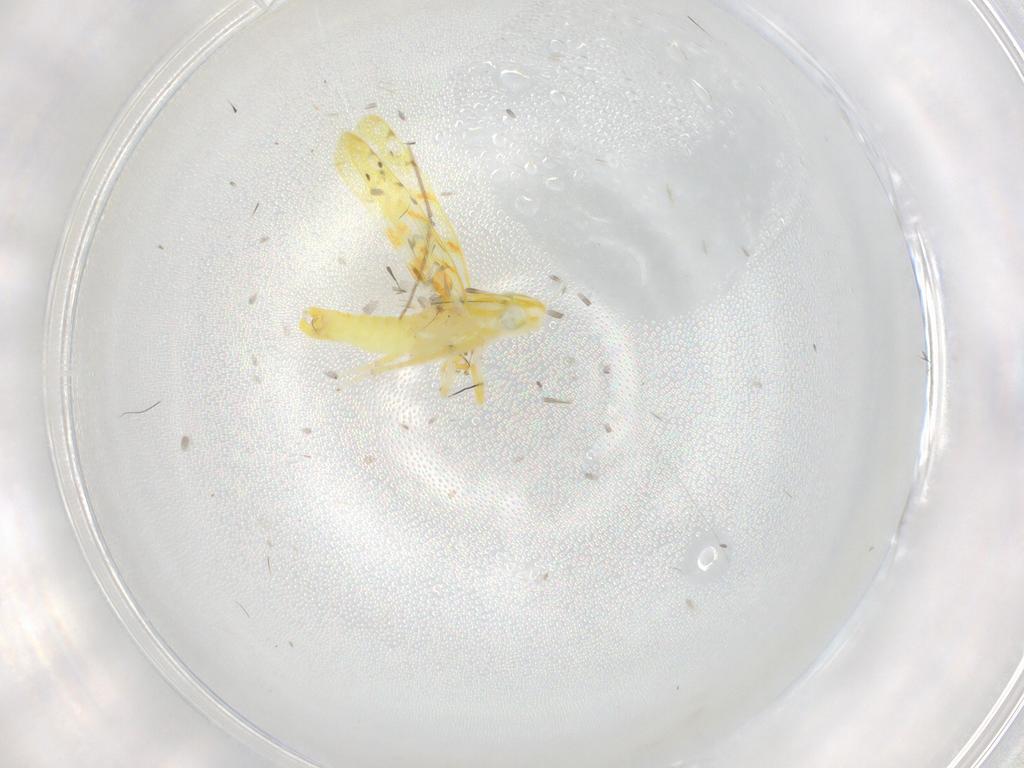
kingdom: Animalia
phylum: Arthropoda
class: Insecta
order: Hemiptera
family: Cicadellidae
